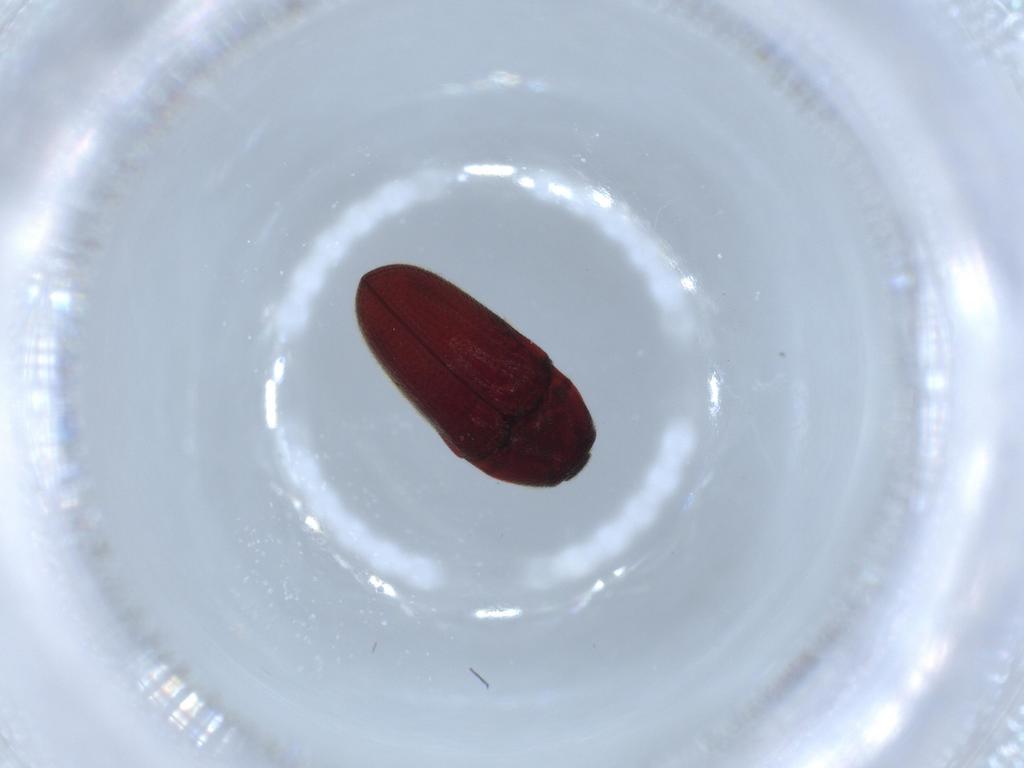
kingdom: Animalia
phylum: Arthropoda
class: Insecta
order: Coleoptera
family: Throscidae
